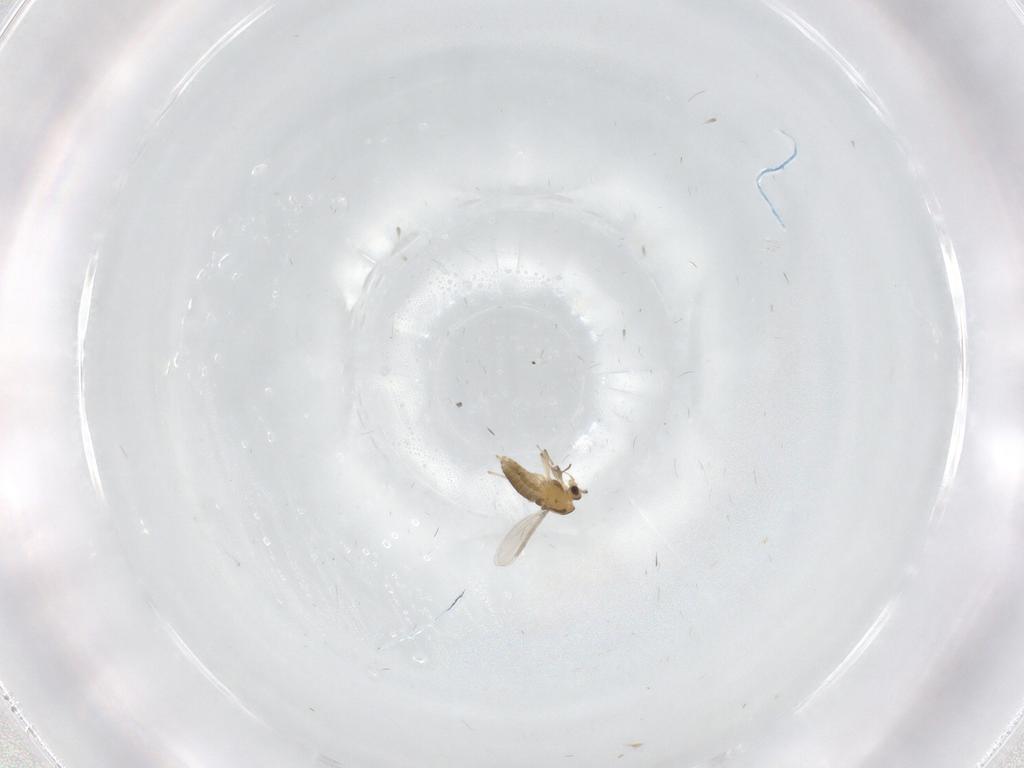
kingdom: Animalia
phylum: Arthropoda
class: Insecta
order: Diptera
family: Chironomidae
